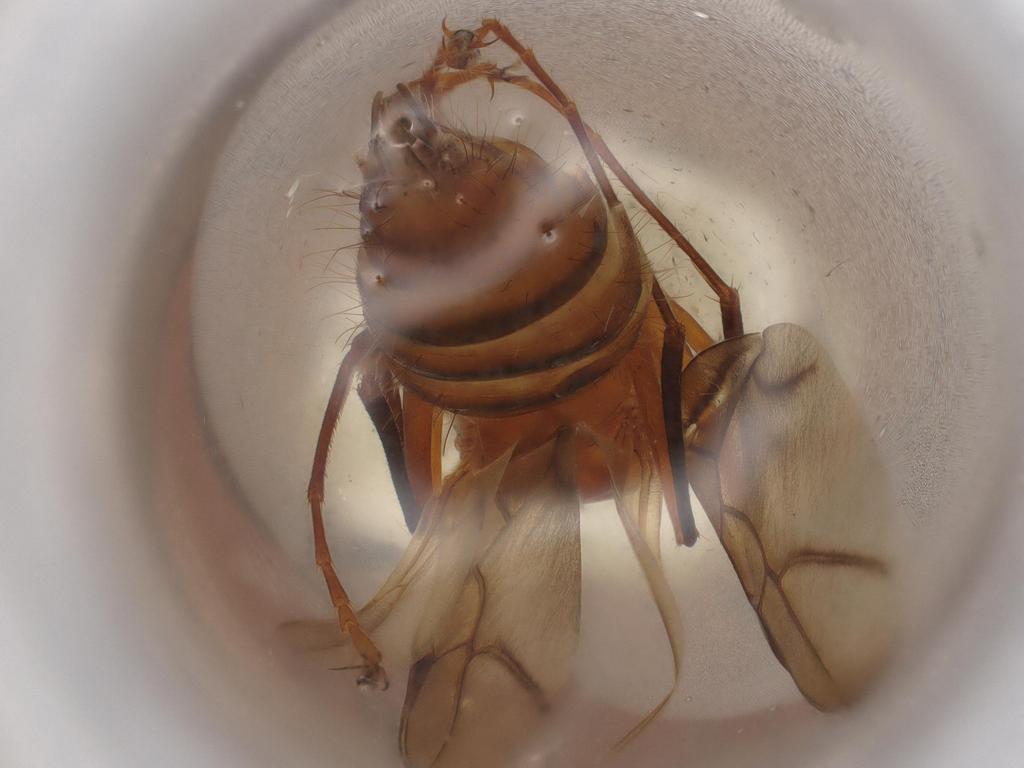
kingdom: Animalia
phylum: Arthropoda
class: Insecta
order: Hymenoptera
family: Formicidae
